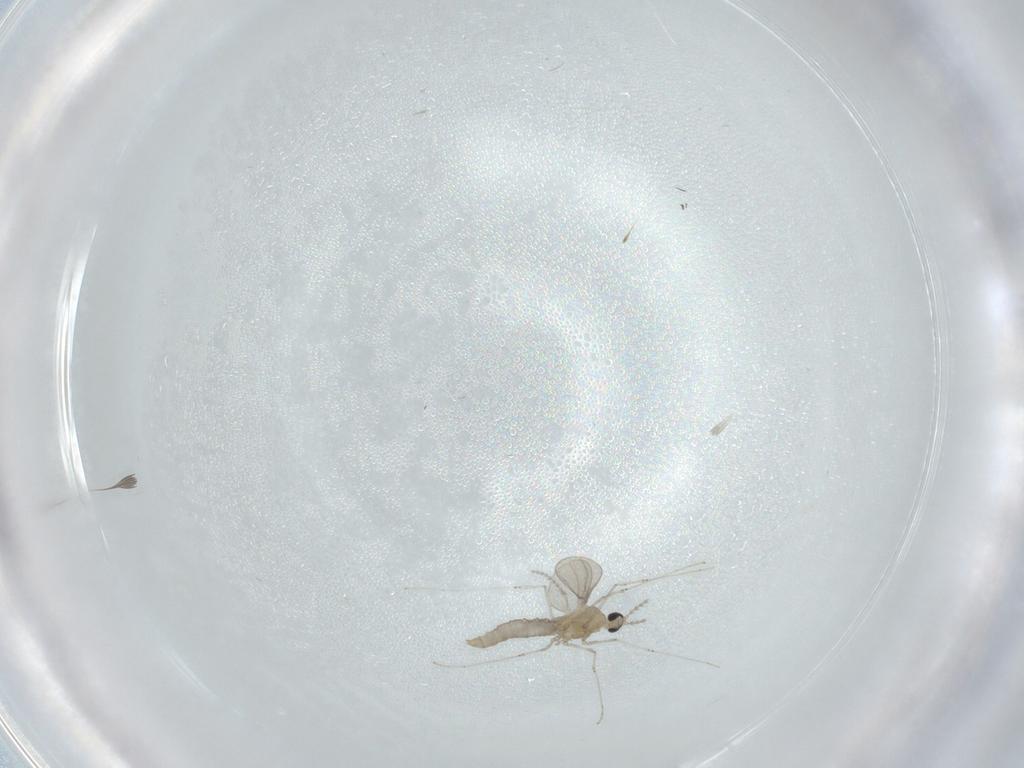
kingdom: Animalia
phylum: Arthropoda
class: Insecta
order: Diptera
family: Cecidomyiidae
